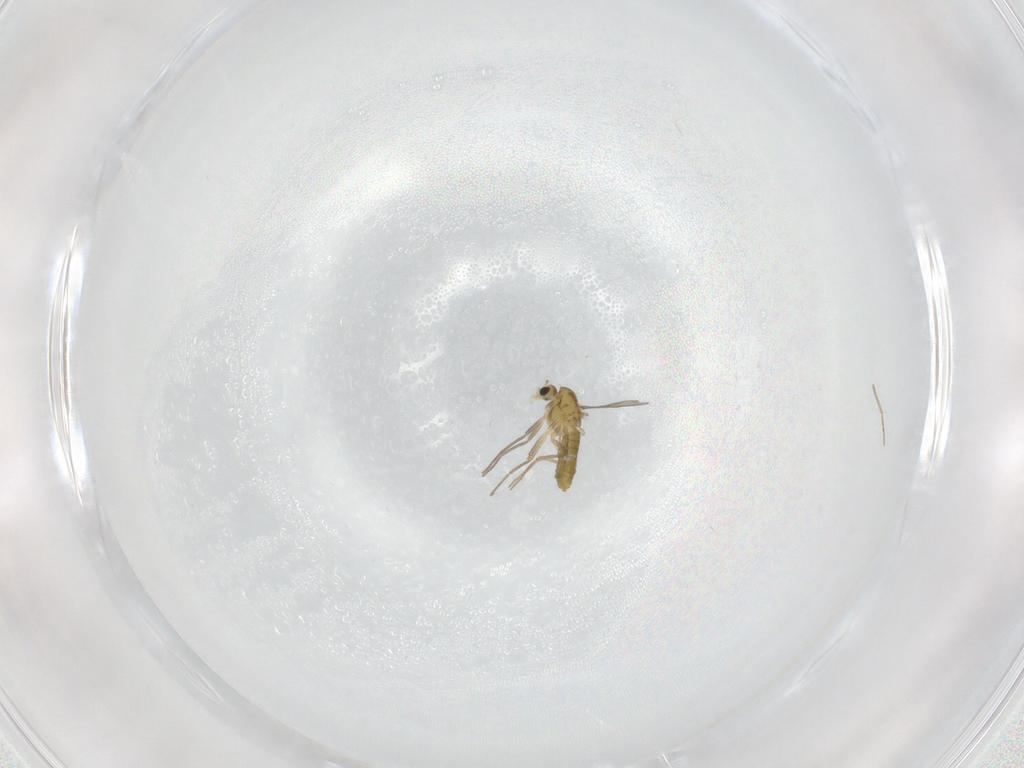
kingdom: Animalia
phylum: Arthropoda
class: Insecta
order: Diptera
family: Chironomidae
